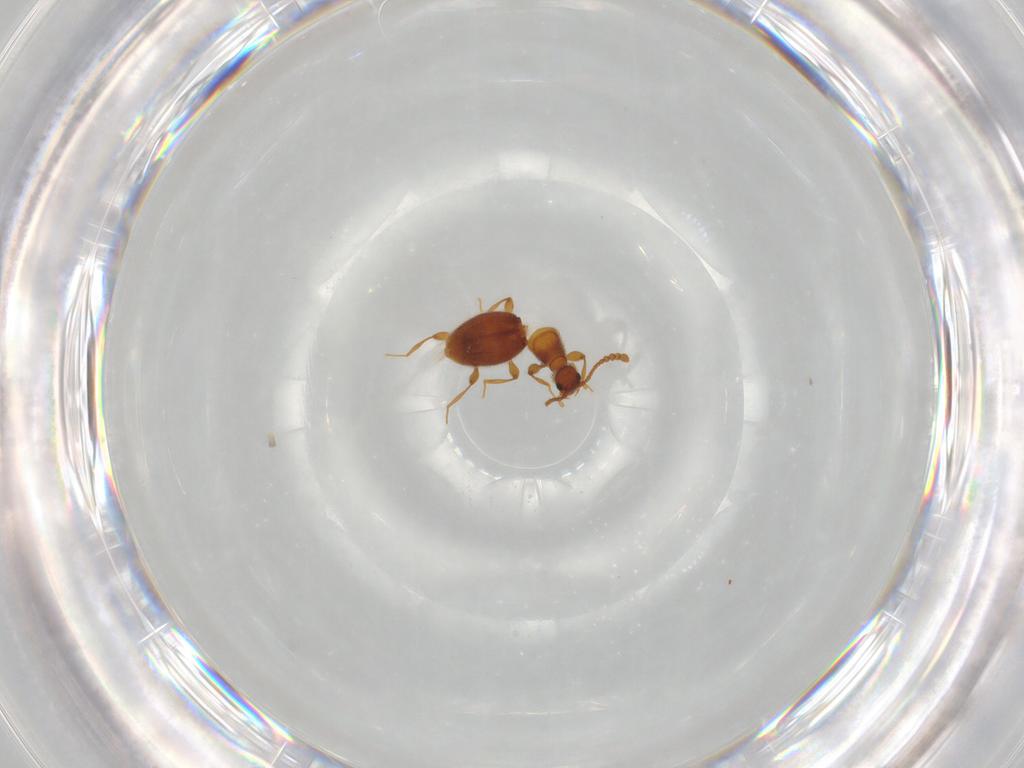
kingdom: Animalia
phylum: Arthropoda
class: Insecta
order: Coleoptera
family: Staphylinidae
